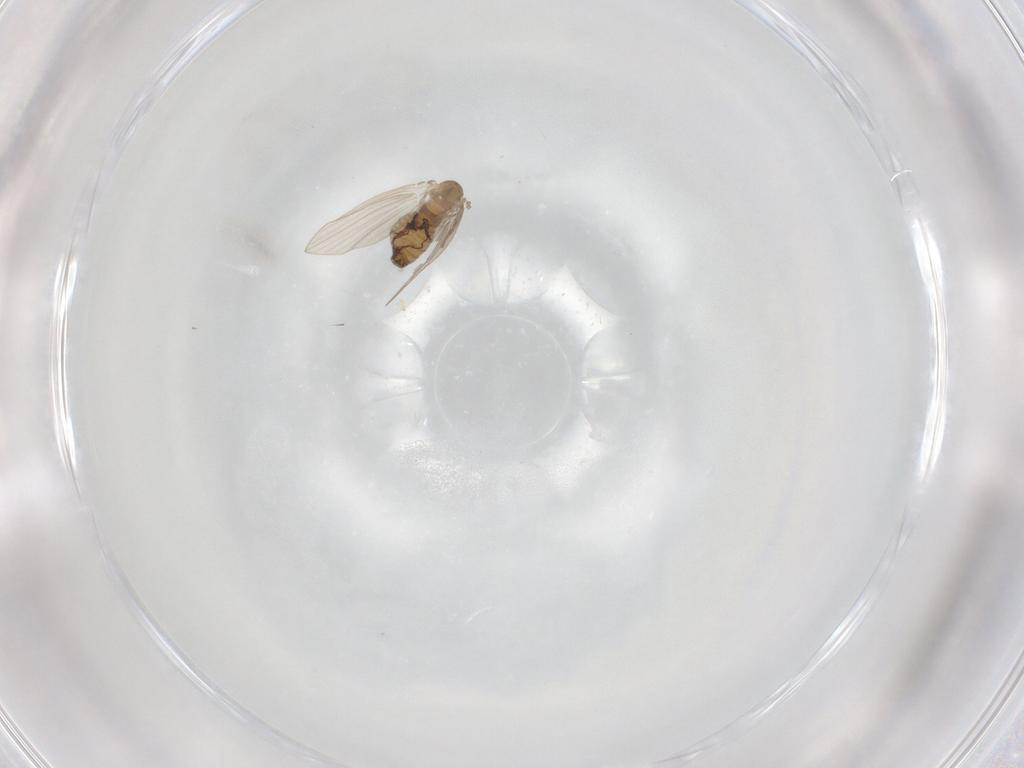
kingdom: Animalia
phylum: Arthropoda
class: Insecta
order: Diptera
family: Psychodidae
